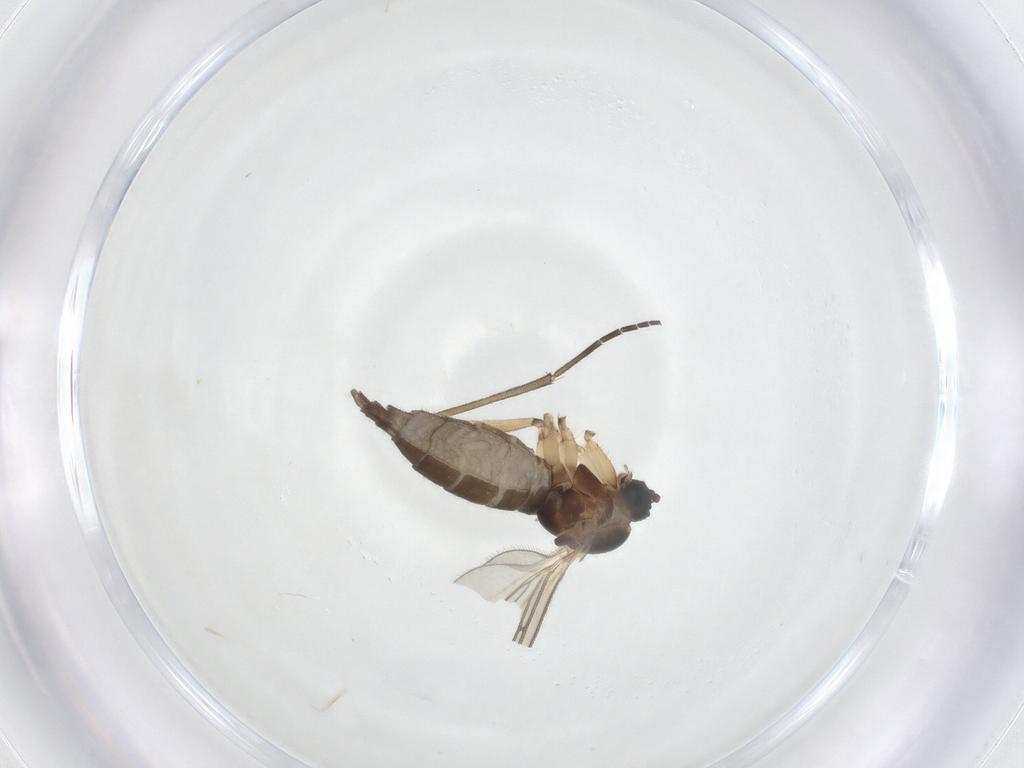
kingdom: Animalia
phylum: Arthropoda
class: Insecta
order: Diptera
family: Sciaridae
